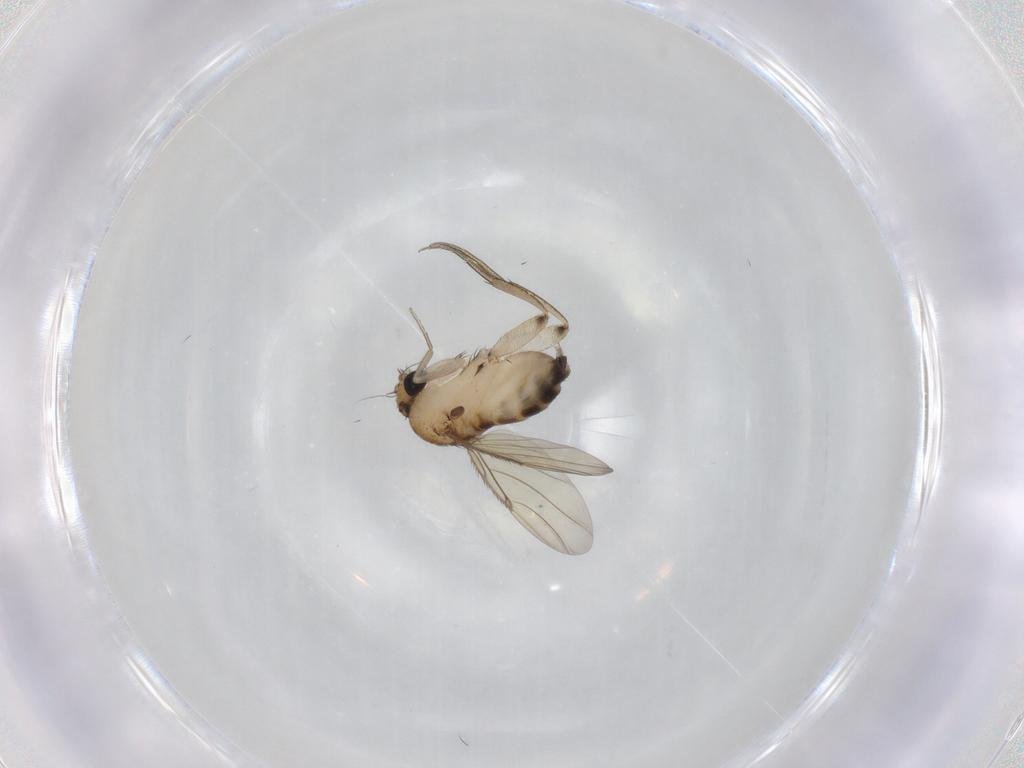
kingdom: Animalia
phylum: Arthropoda
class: Insecta
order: Diptera
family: Phoridae
